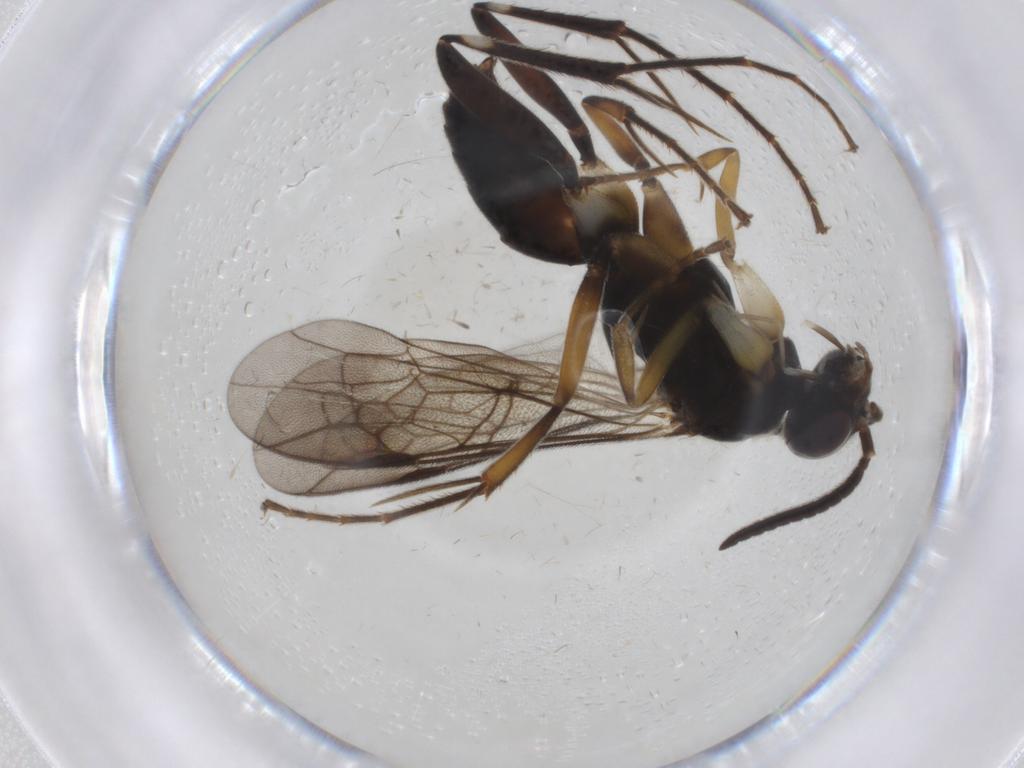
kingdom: Animalia
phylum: Arthropoda
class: Insecta
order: Hymenoptera
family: Pompilidae
